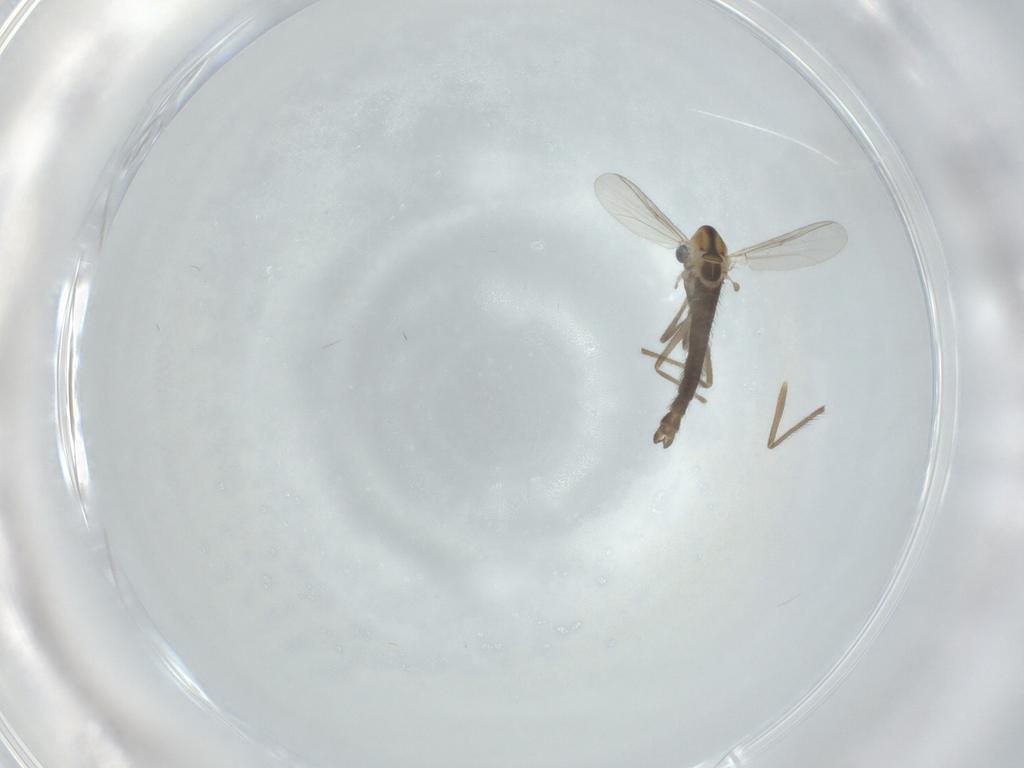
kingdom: Animalia
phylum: Arthropoda
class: Insecta
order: Diptera
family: Chironomidae
